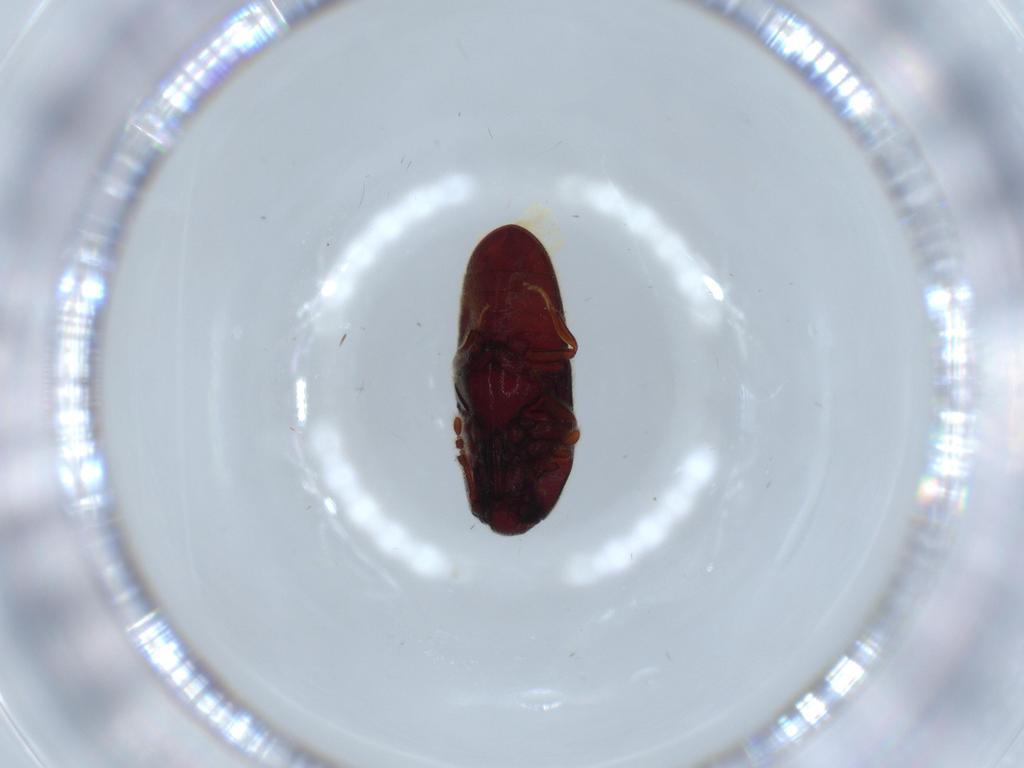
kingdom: Animalia
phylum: Arthropoda
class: Insecta
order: Coleoptera
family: Throscidae
